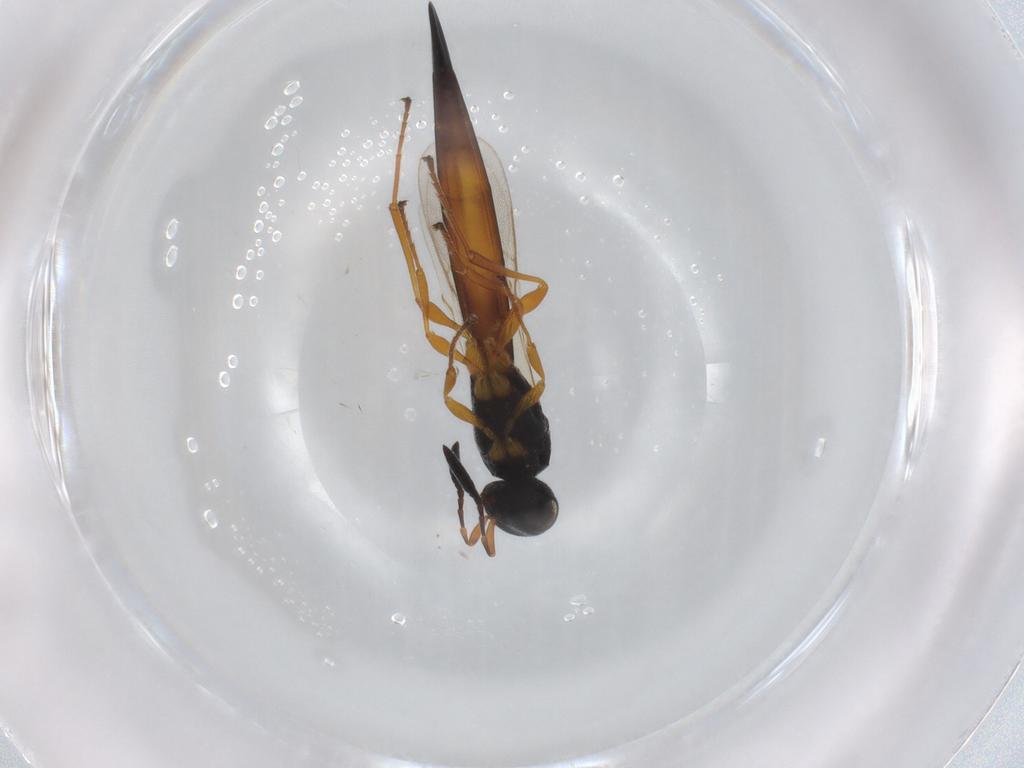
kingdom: Animalia
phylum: Arthropoda
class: Insecta
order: Hymenoptera
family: Scelionidae
